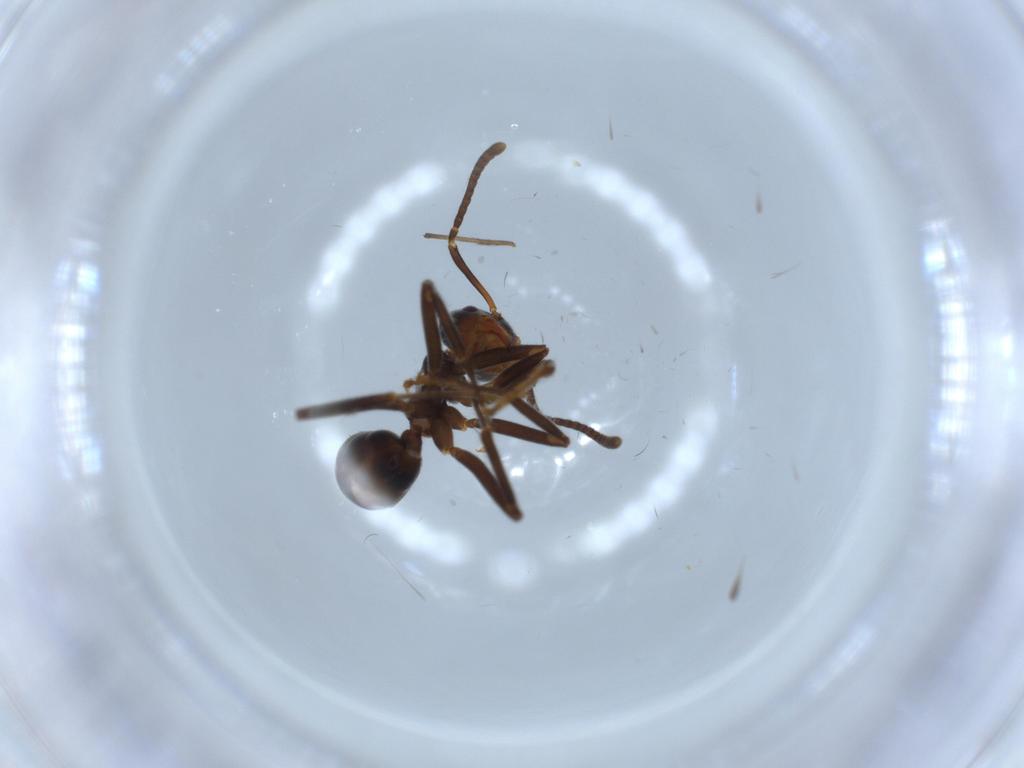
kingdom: Animalia
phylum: Arthropoda
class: Insecta
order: Hymenoptera
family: Formicidae
